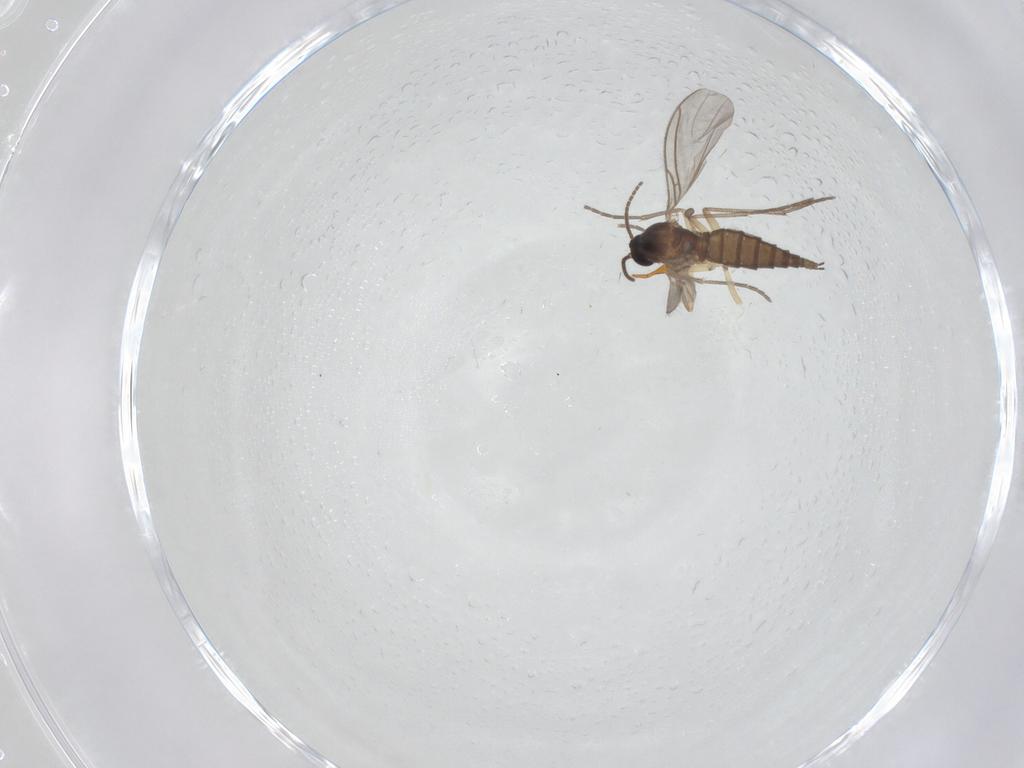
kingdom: Animalia
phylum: Arthropoda
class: Insecta
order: Diptera
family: Sciaridae
